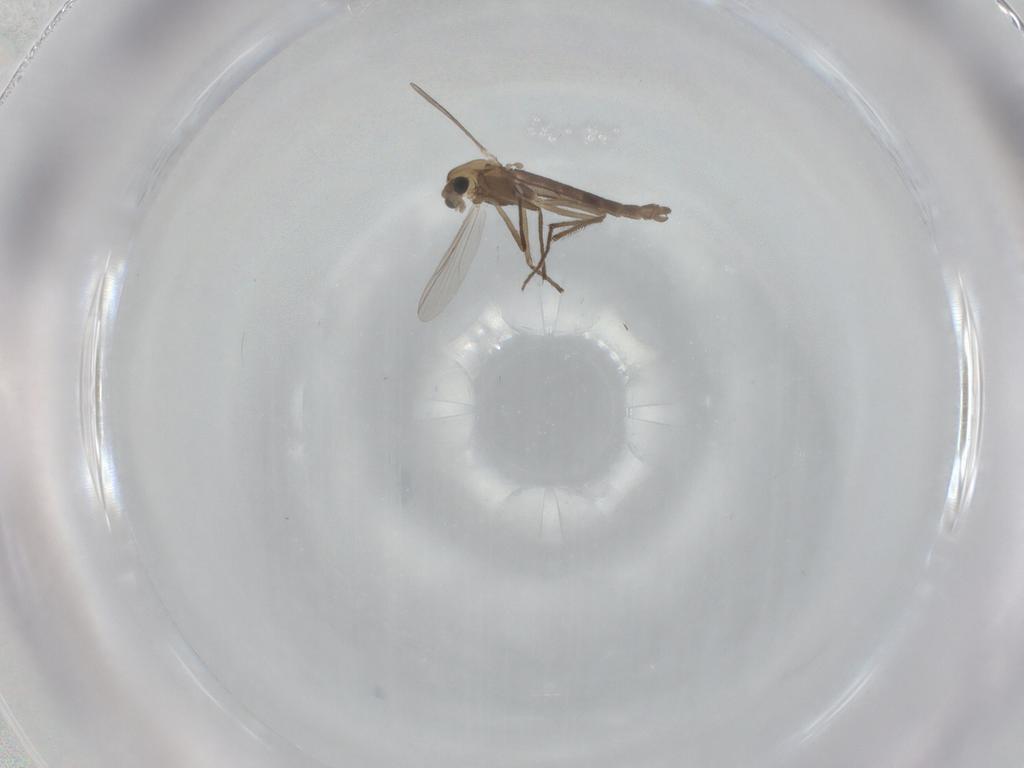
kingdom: Animalia
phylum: Arthropoda
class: Insecta
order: Diptera
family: Chironomidae
